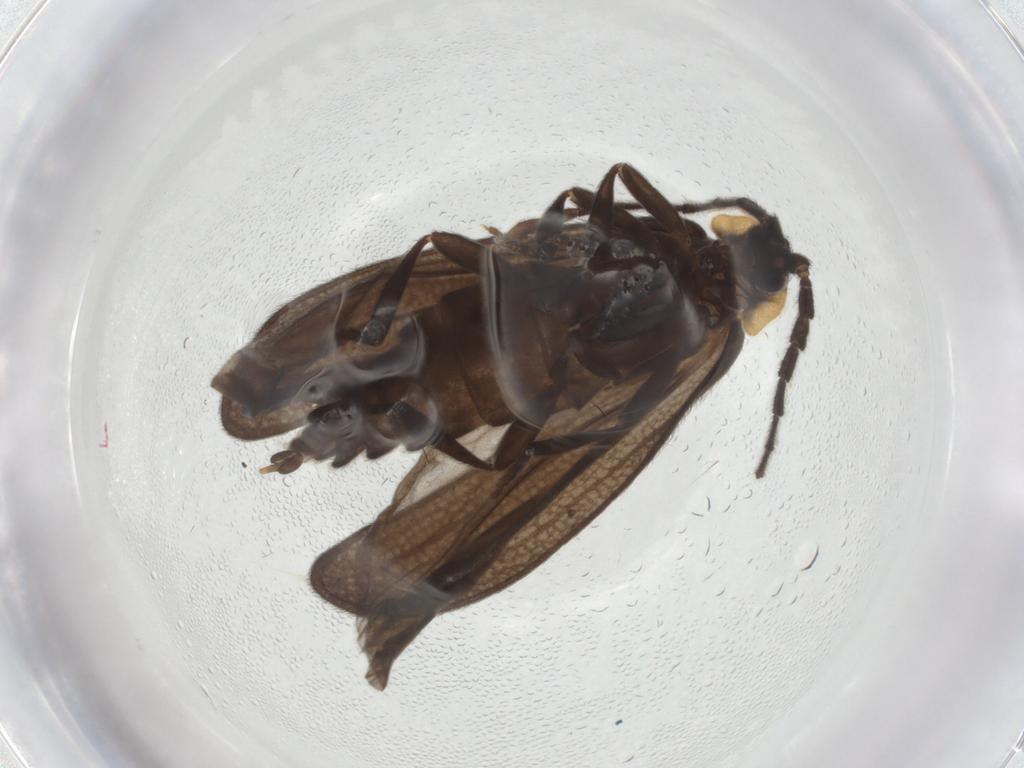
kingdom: Animalia
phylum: Arthropoda
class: Insecta
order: Coleoptera
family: Lycidae
